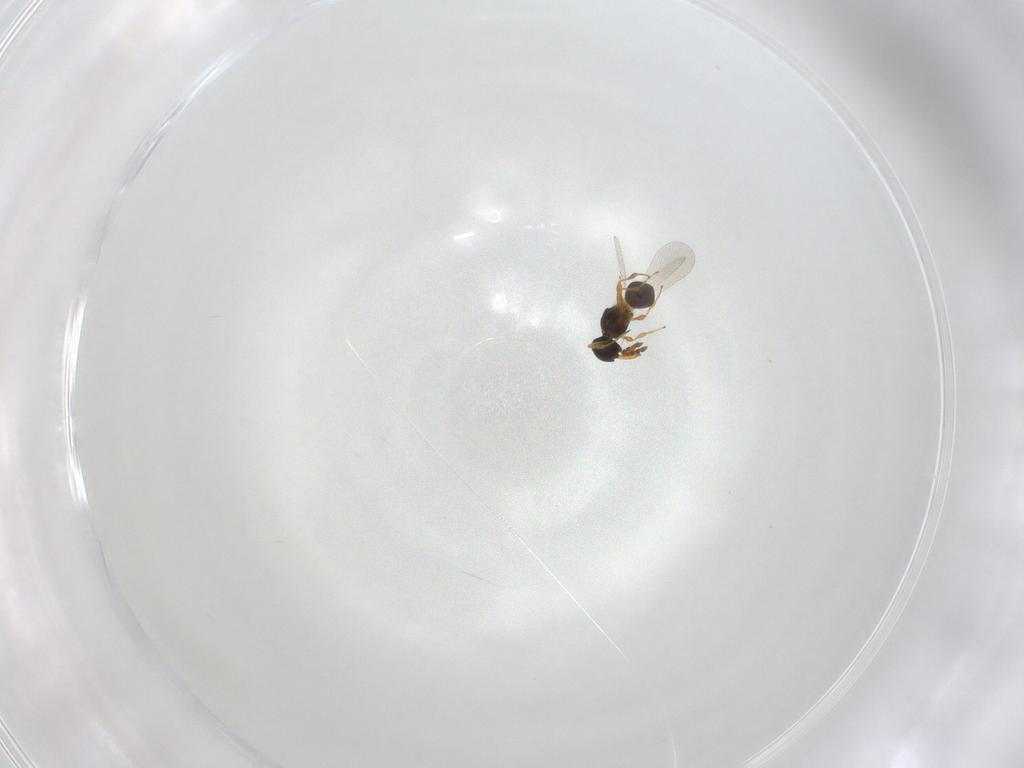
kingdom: Animalia
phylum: Arthropoda
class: Insecta
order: Hymenoptera
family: Platygastridae
